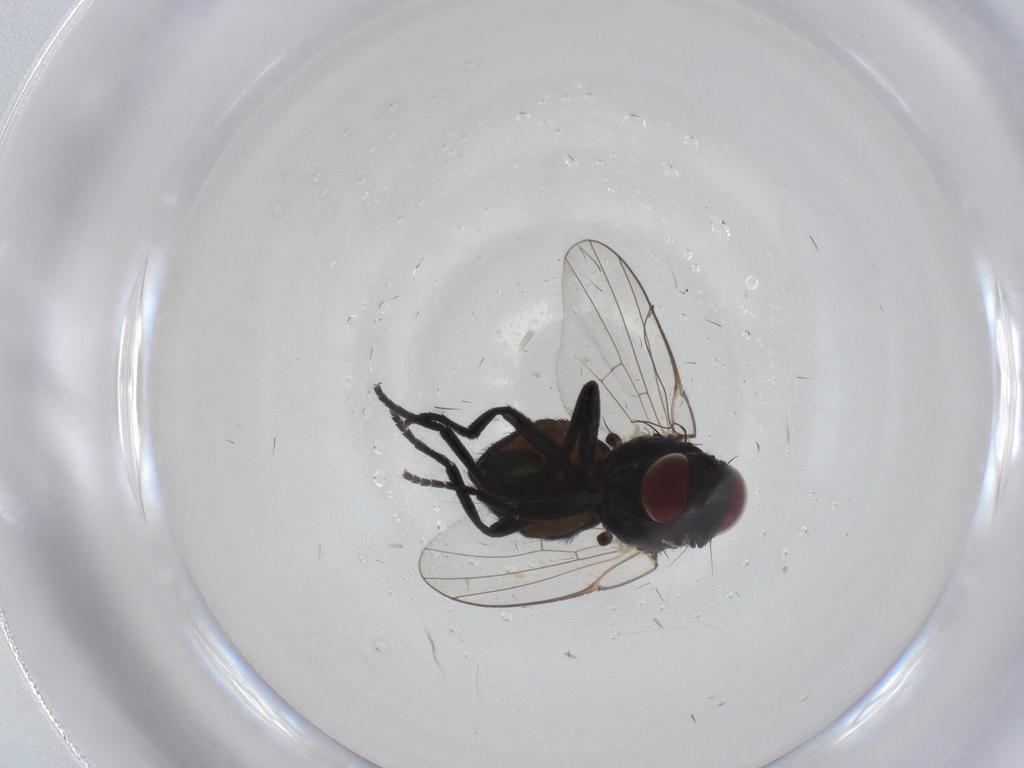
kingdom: Animalia
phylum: Arthropoda
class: Insecta
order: Diptera
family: Agromyzidae
